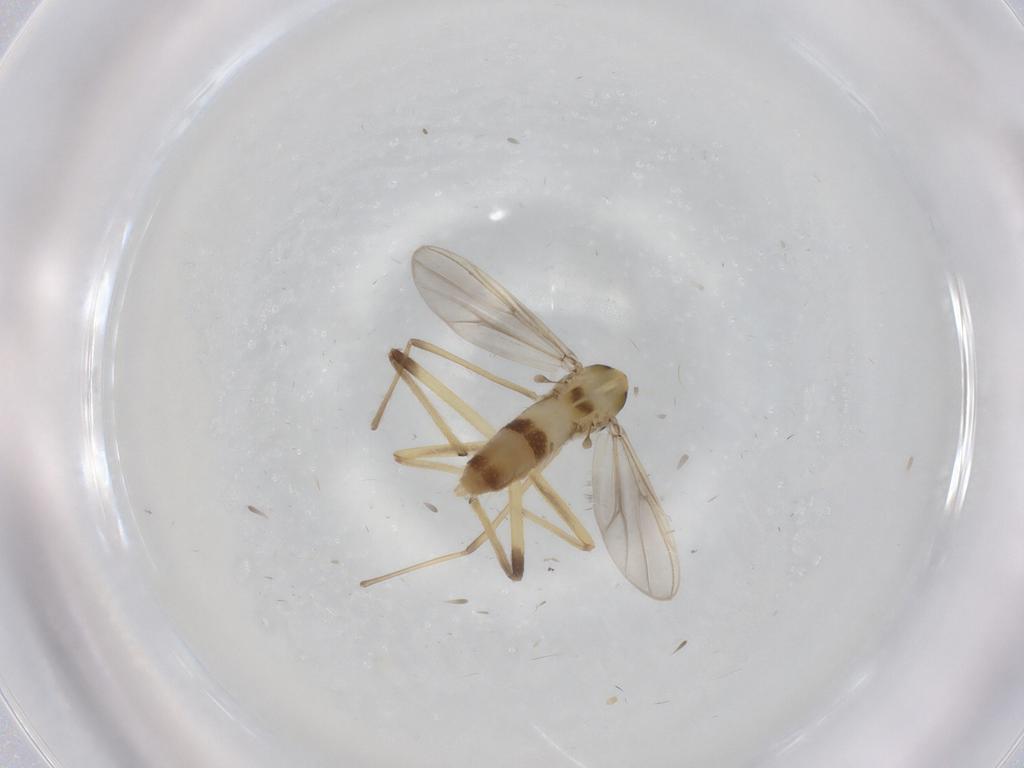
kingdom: Animalia
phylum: Arthropoda
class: Insecta
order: Diptera
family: Chironomidae
